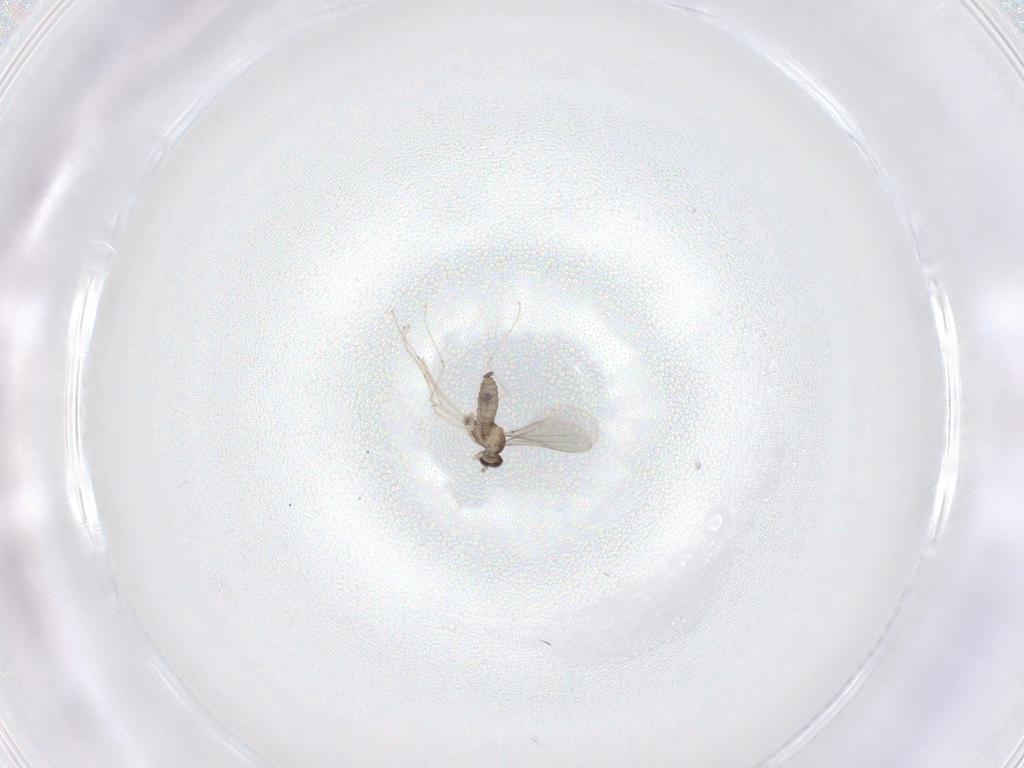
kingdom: Animalia
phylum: Arthropoda
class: Insecta
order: Diptera
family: Cecidomyiidae
